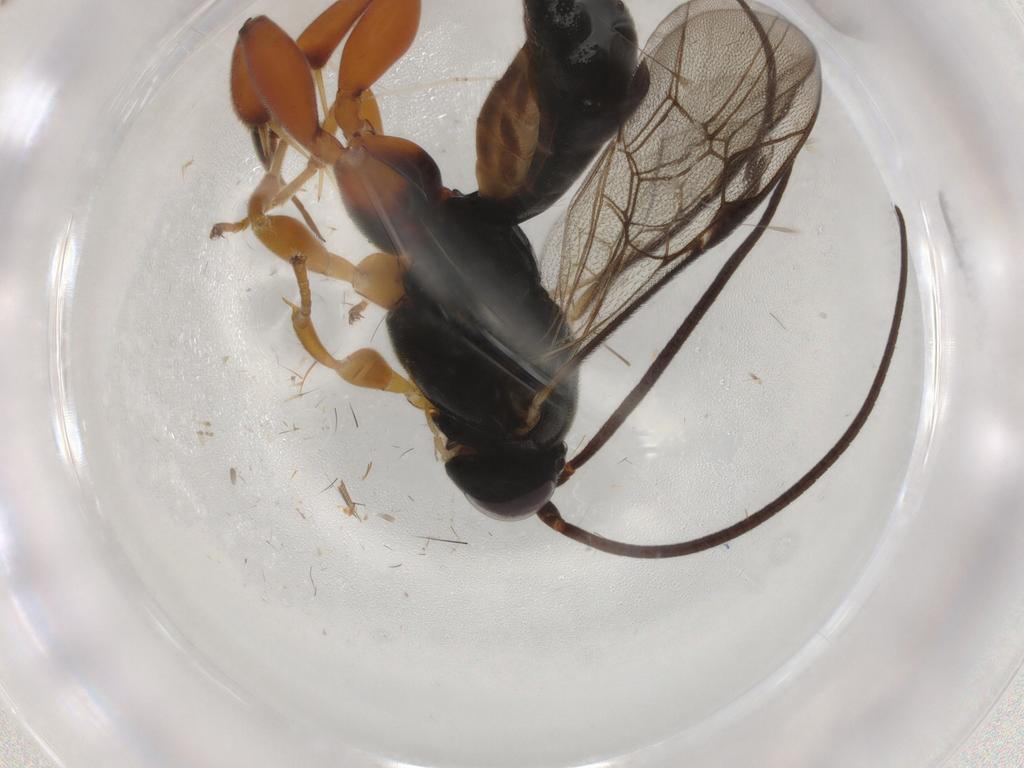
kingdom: Animalia
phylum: Arthropoda
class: Insecta
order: Hymenoptera
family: Ichneumonidae
